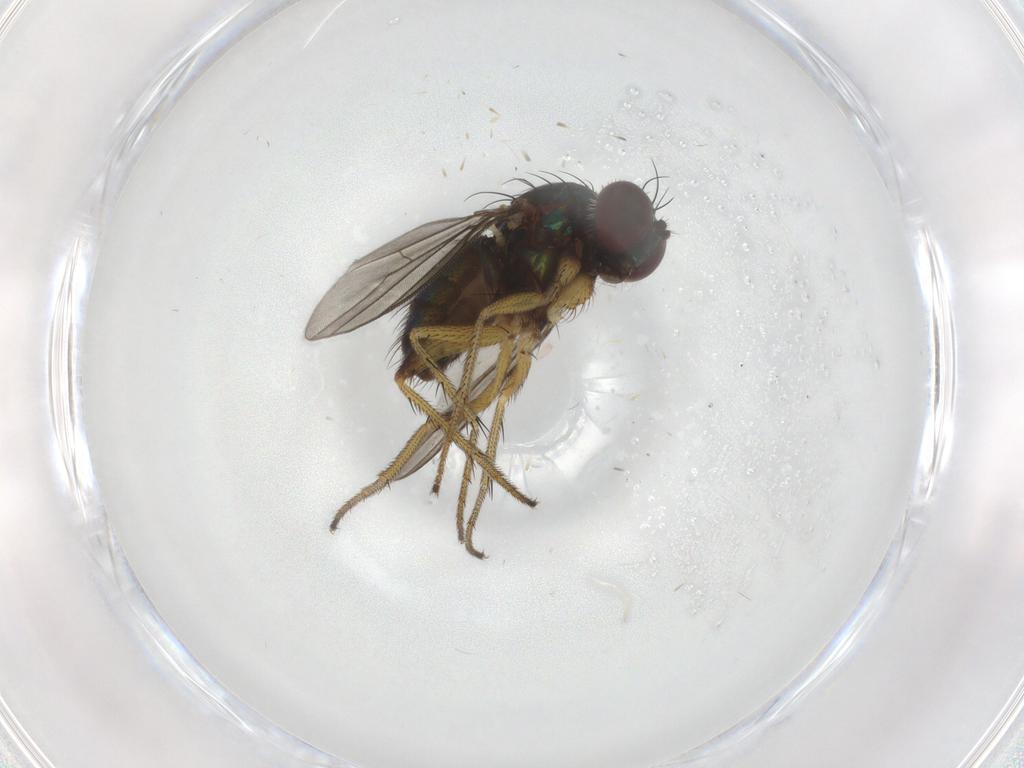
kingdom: Animalia
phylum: Arthropoda
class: Insecta
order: Diptera
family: Dolichopodidae
